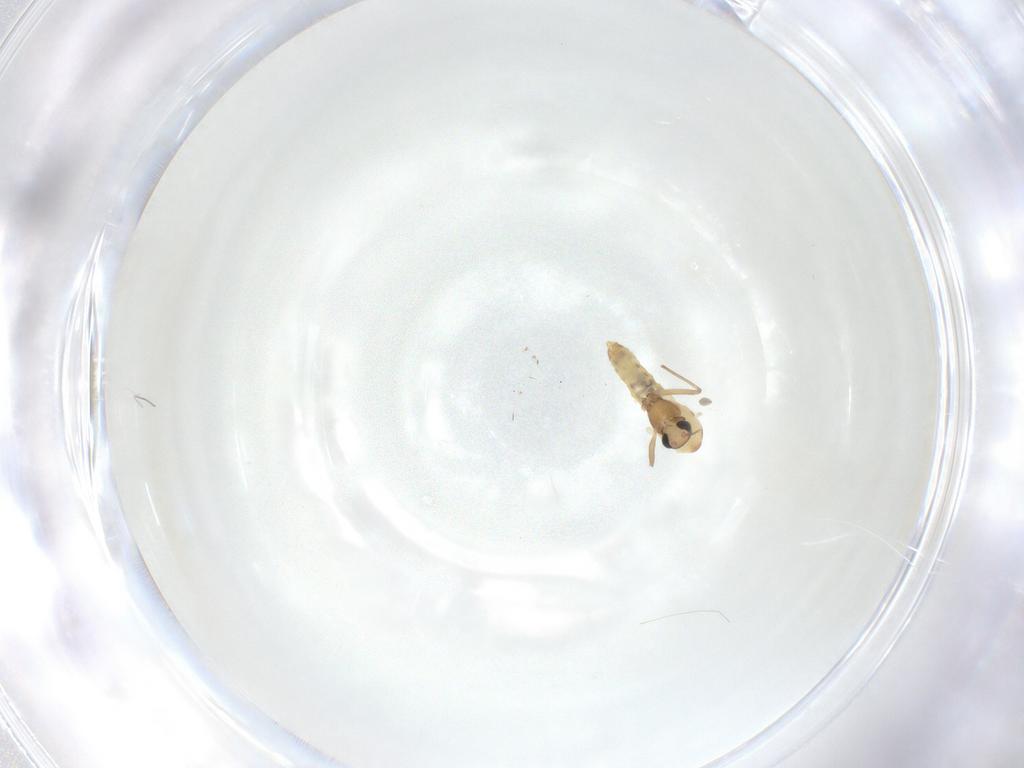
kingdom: Animalia
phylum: Arthropoda
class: Insecta
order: Diptera
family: Chironomidae
